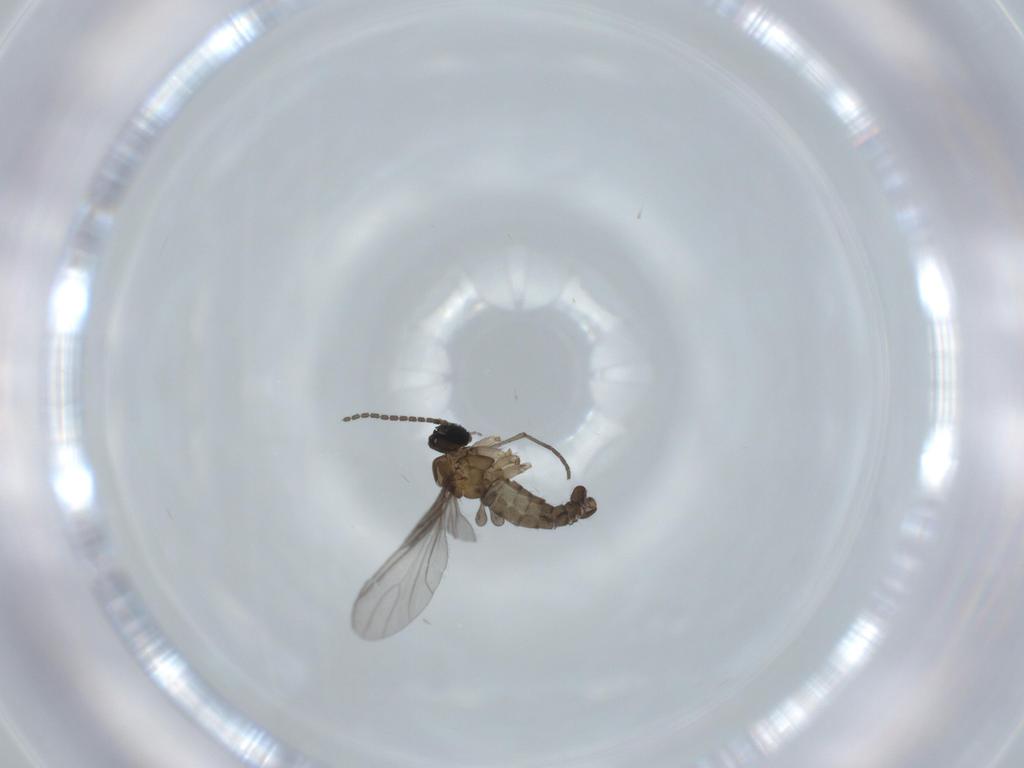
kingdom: Animalia
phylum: Arthropoda
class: Insecta
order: Diptera
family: Sciaridae
